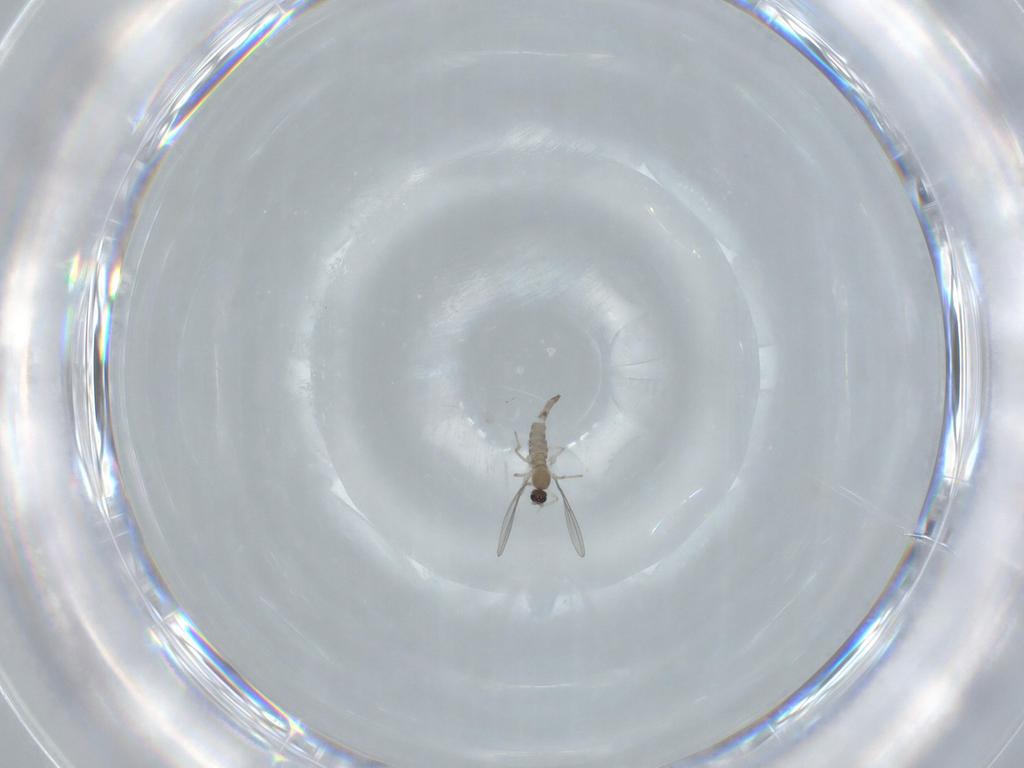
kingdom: Animalia
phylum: Arthropoda
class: Insecta
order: Diptera
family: Cecidomyiidae
